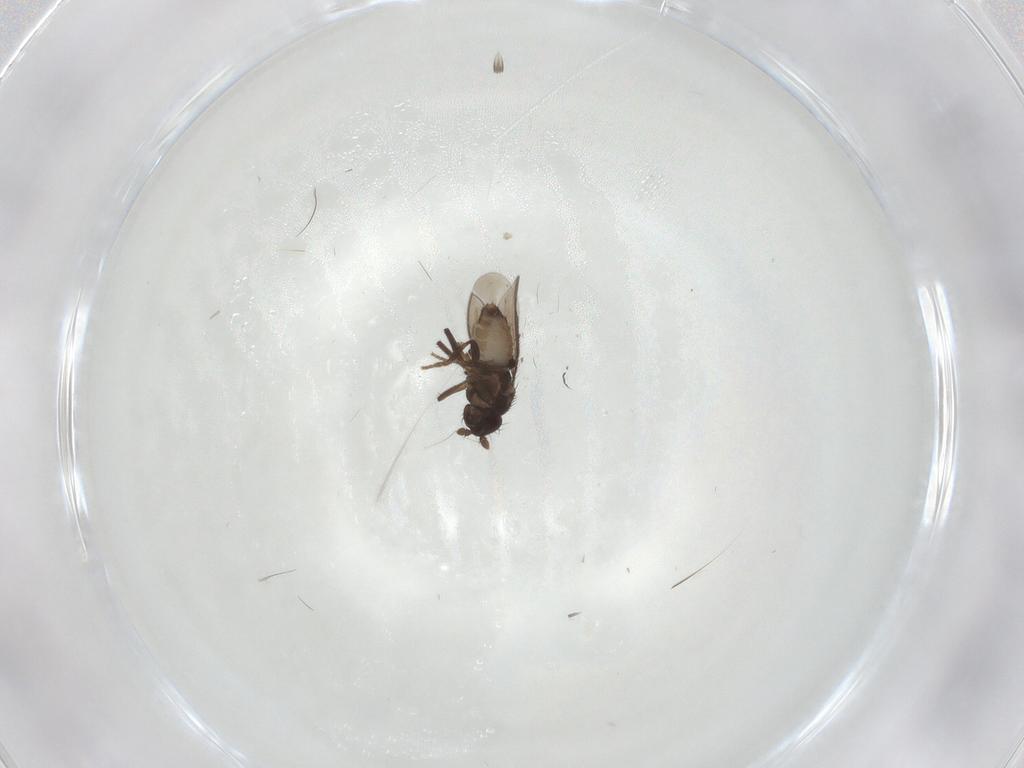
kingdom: Animalia
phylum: Arthropoda
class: Insecta
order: Diptera
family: Sphaeroceridae
